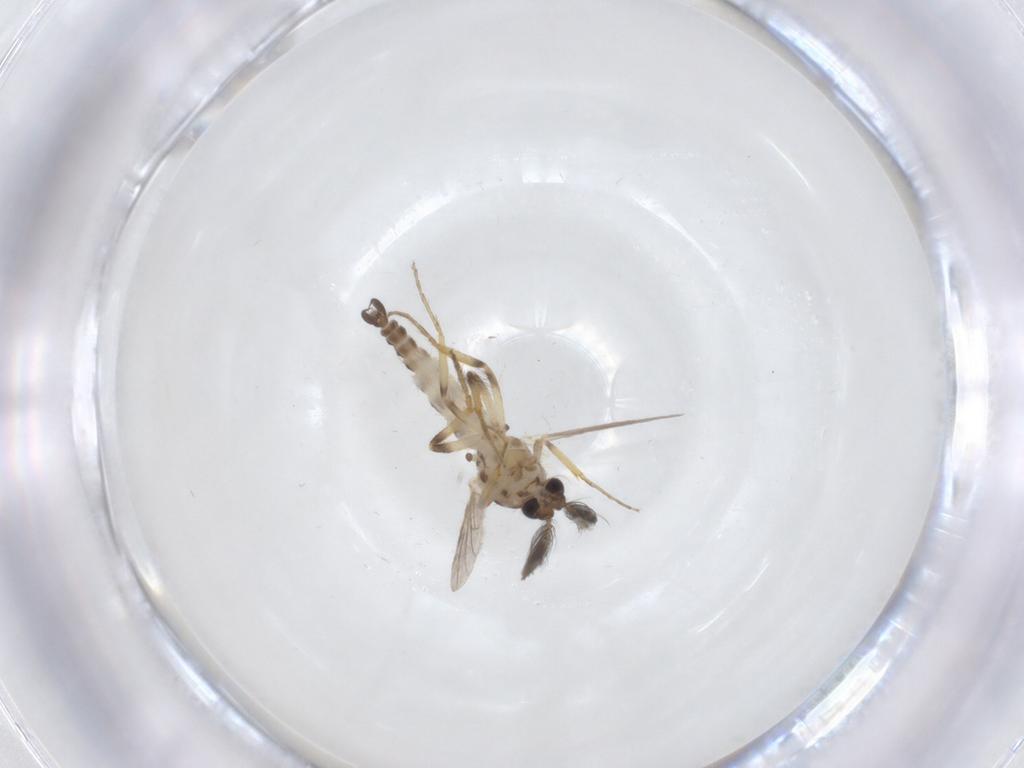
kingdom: Animalia
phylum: Arthropoda
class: Insecta
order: Diptera
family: Ceratopogonidae
